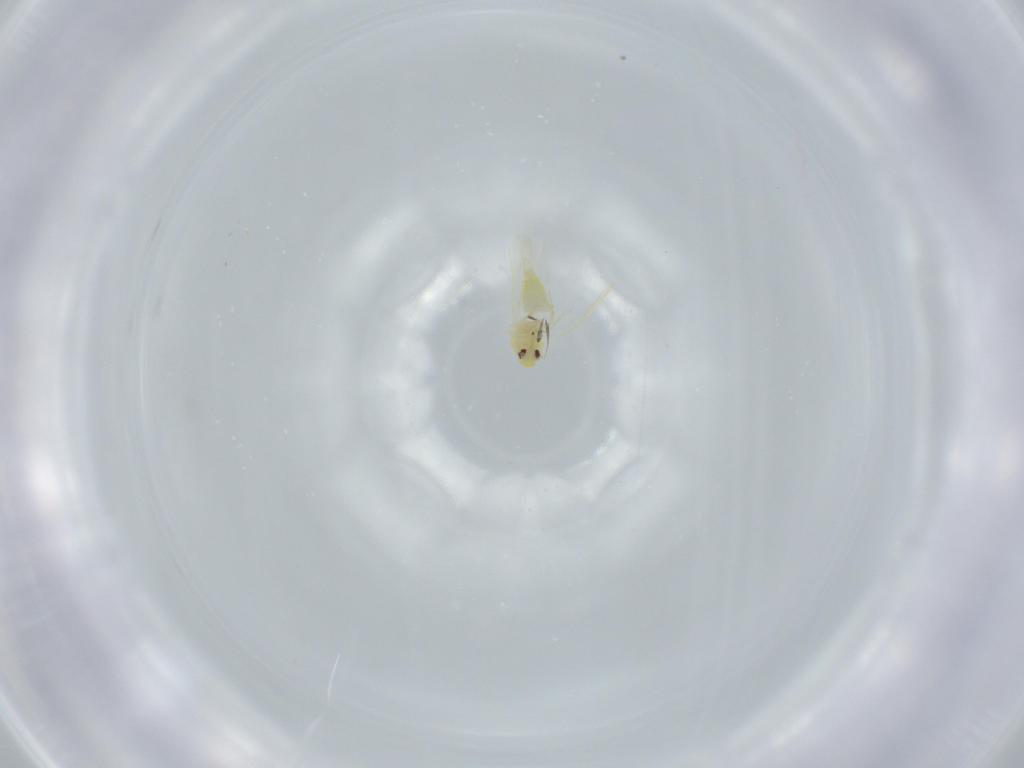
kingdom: Animalia
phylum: Arthropoda
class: Insecta
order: Hemiptera
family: Aleyrodidae
